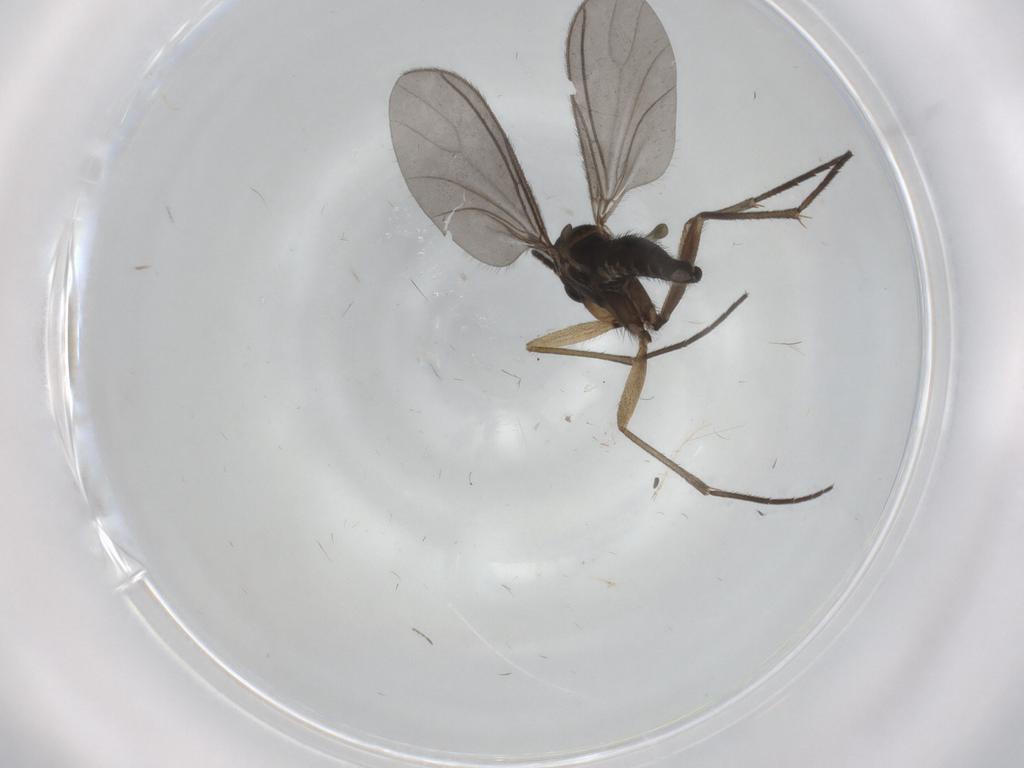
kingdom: Animalia
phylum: Arthropoda
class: Insecta
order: Diptera
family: Sciaridae
